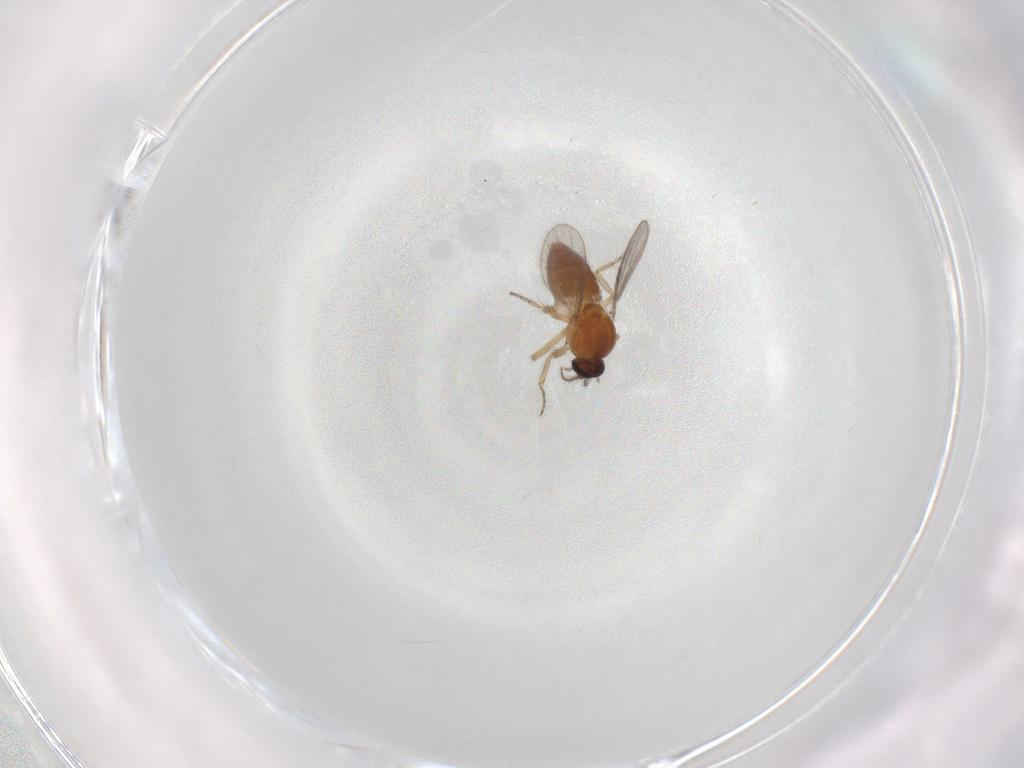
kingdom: Animalia
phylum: Arthropoda
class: Insecta
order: Diptera
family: Ceratopogonidae
